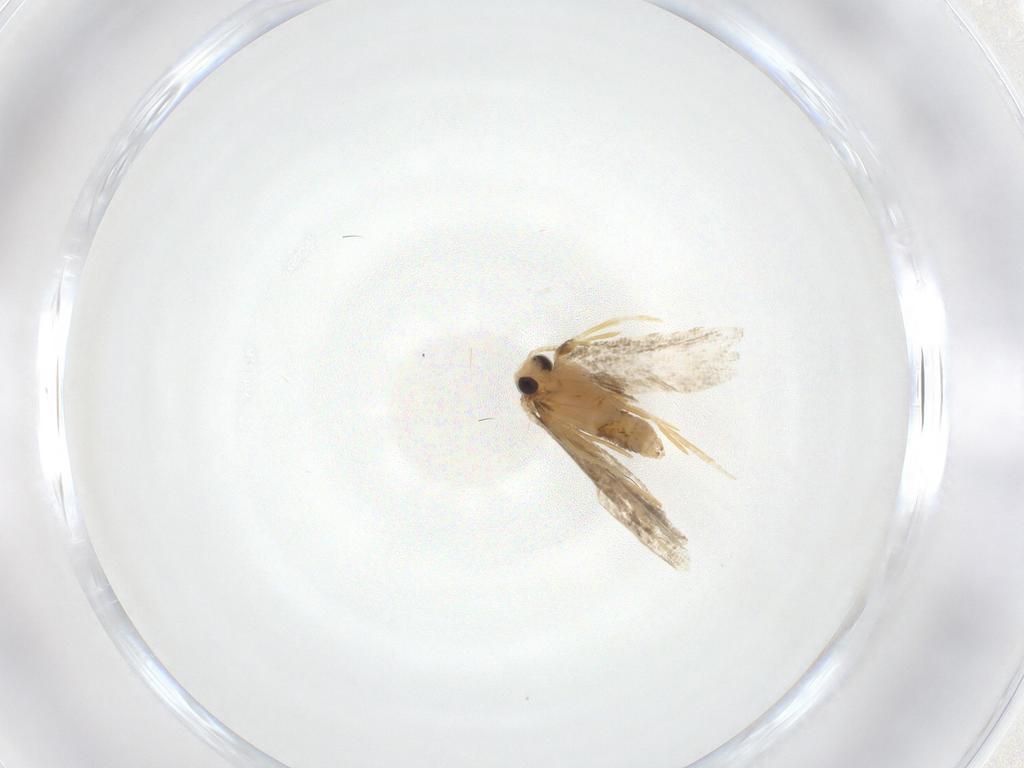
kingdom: Animalia
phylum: Arthropoda
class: Insecta
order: Lepidoptera
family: Psychidae
